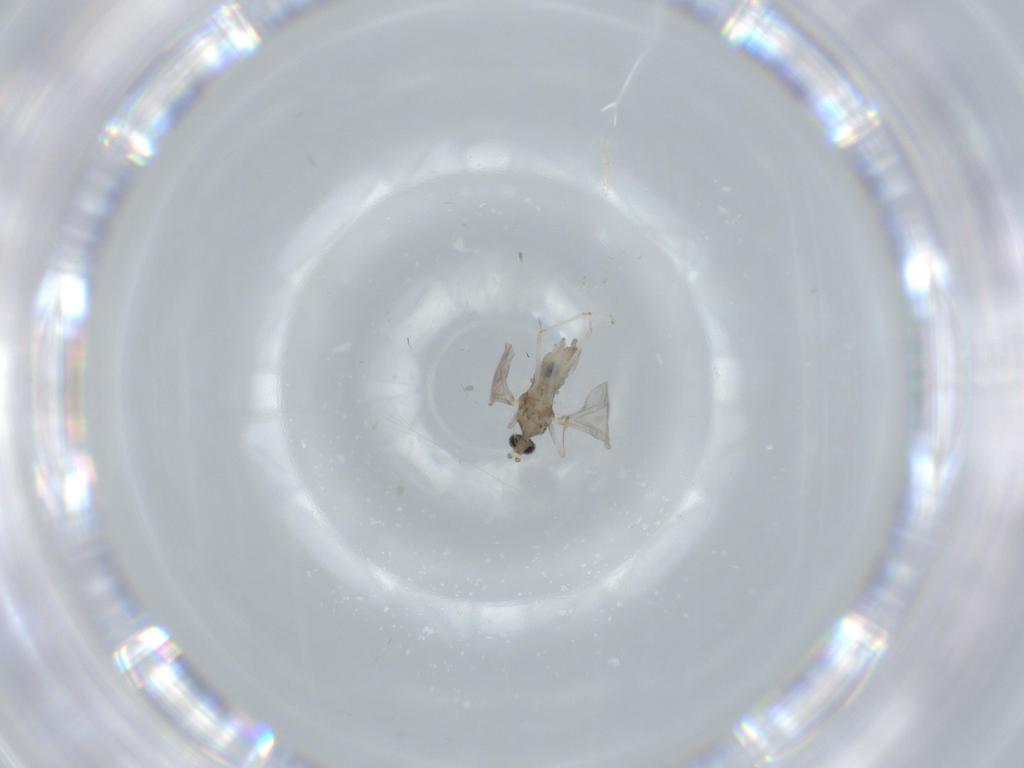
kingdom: Animalia
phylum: Arthropoda
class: Insecta
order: Diptera
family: Cecidomyiidae
